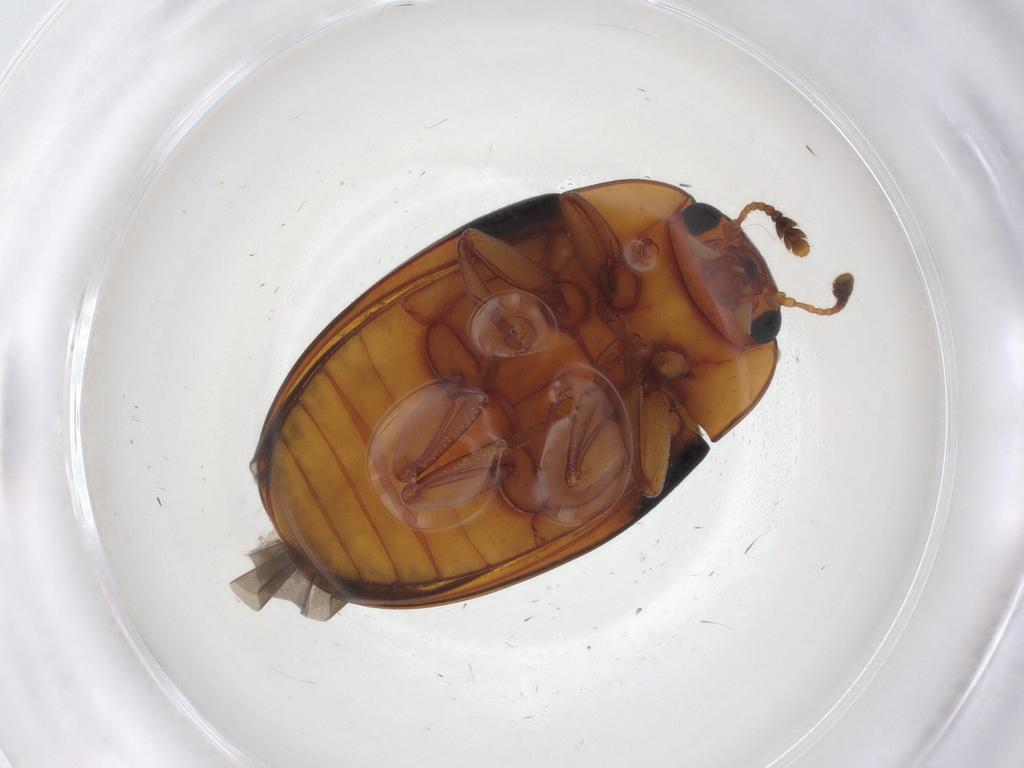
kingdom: Animalia
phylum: Arthropoda
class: Insecta
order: Coleoptera
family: Erotylidae
